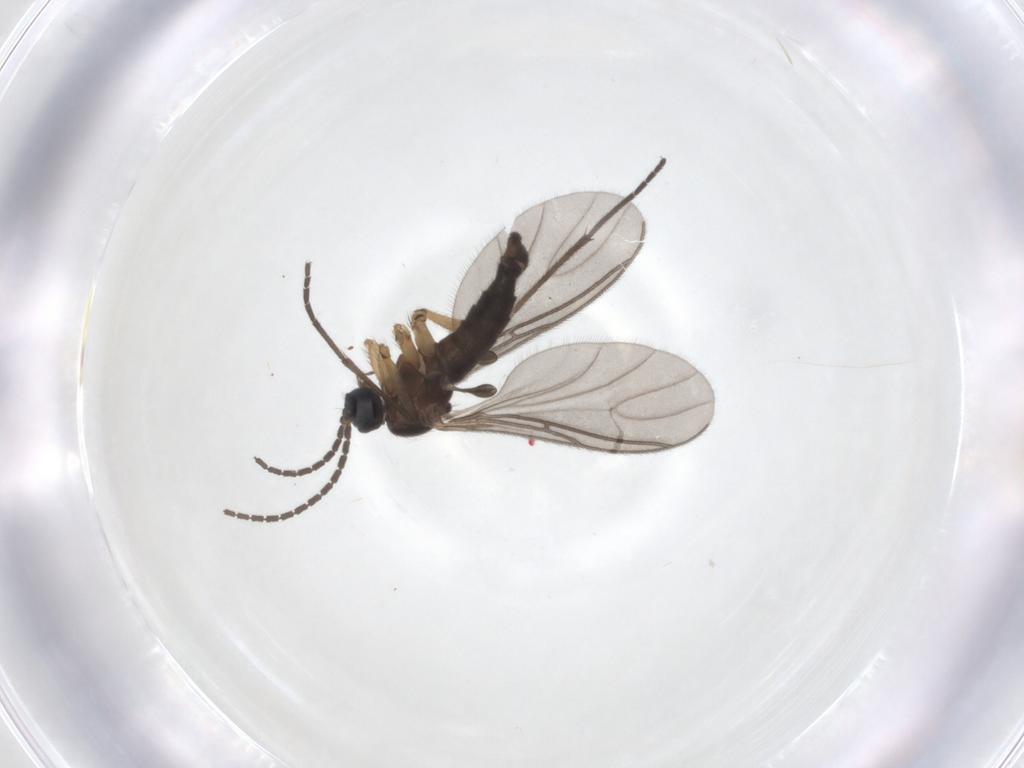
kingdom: Animalia
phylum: Arthropoda
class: Insecta
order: Diptera
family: Sciaridae
